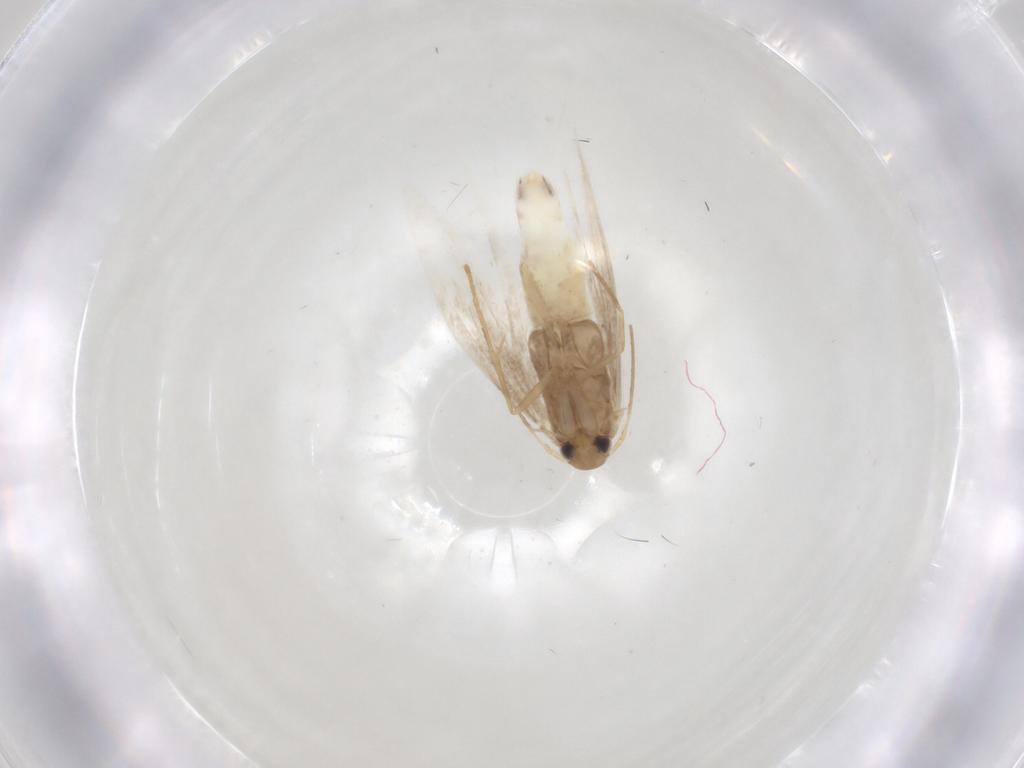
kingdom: Animalia
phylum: Arthropoda
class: Insecta
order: Lepidoptera
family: Gracillariidae
